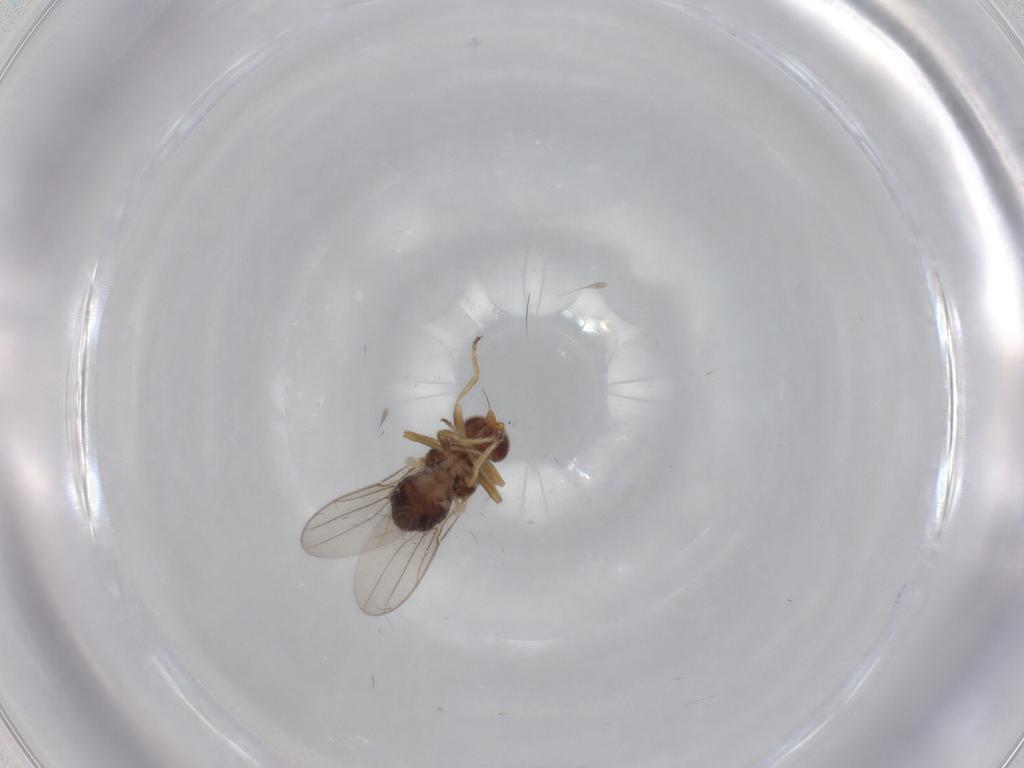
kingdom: Animalia
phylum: Arthropoda
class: Insecta
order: Diptera
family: Chloropidae
